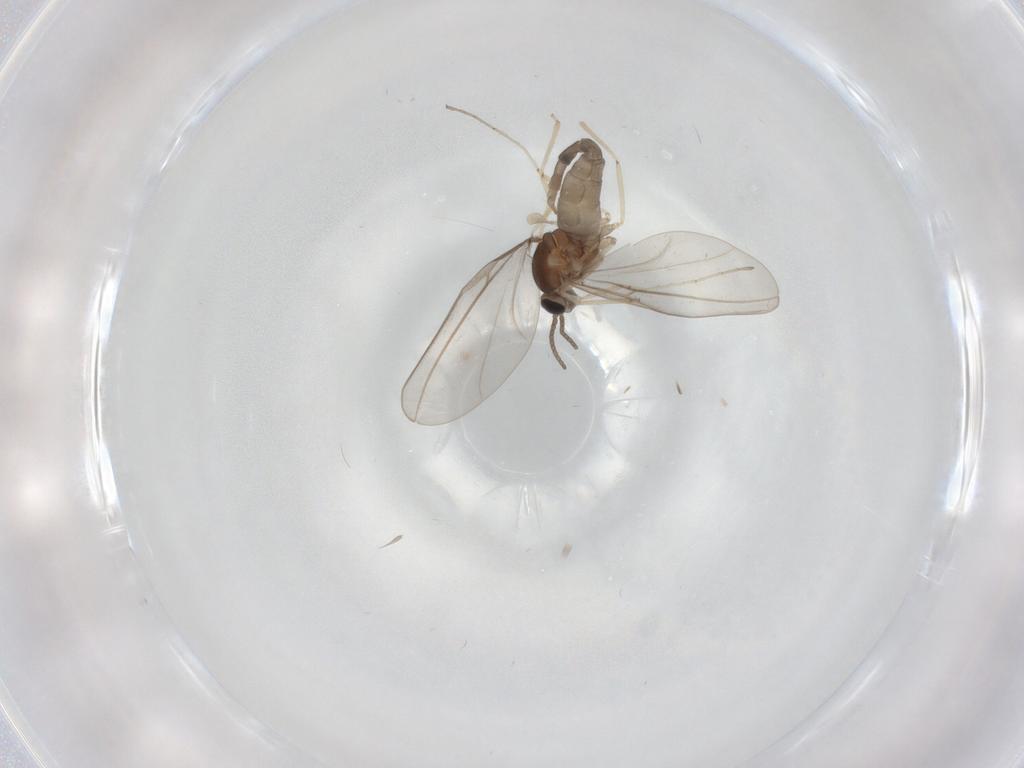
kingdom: Animalia
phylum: Arthropoda
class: Insecta
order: Diptera
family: Cecidomyiidae
